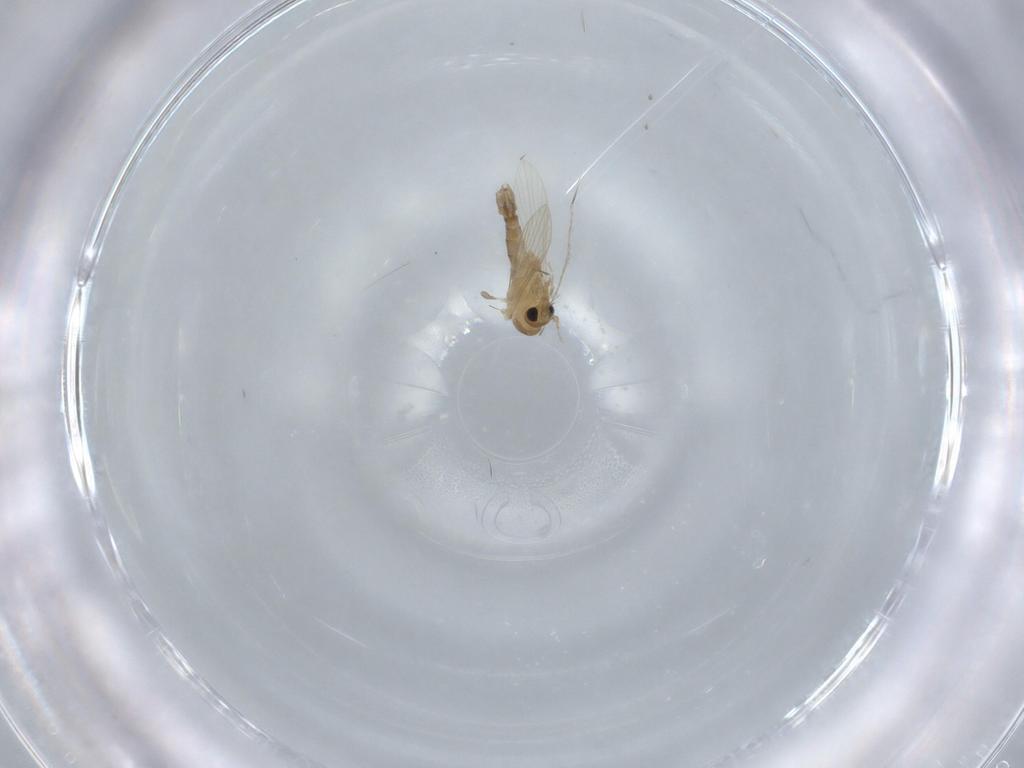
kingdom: Animalia
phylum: Arthropoda
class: Insecta
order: Diptera
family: Psychodidae
